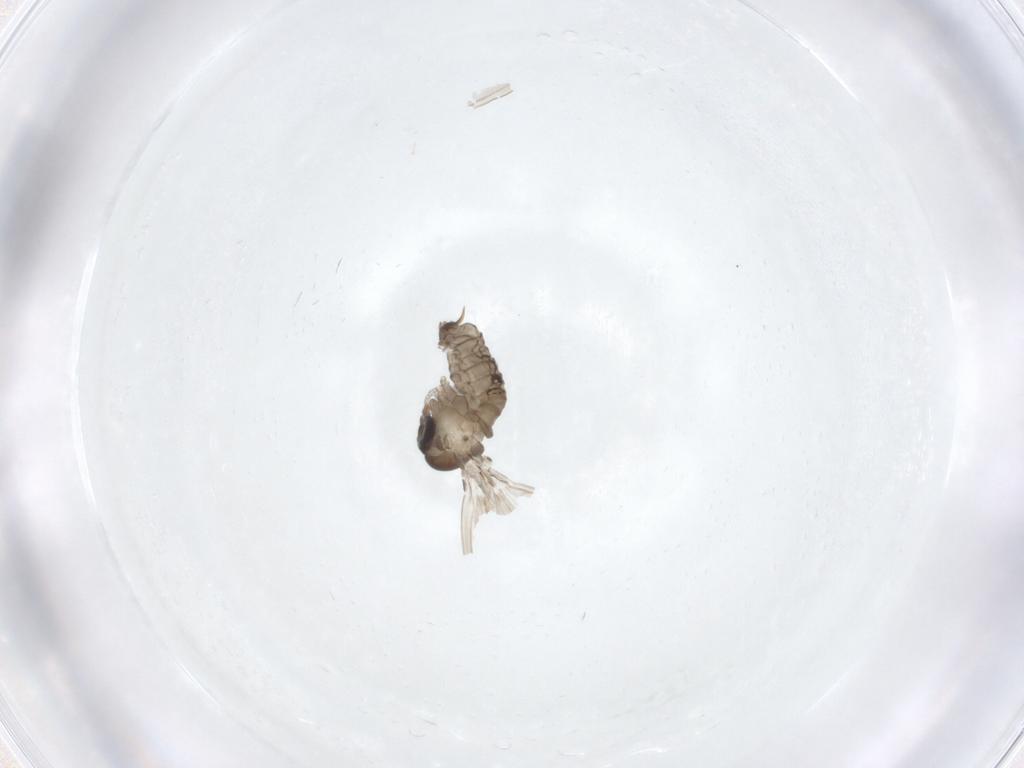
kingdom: Animalia
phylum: Arthropoda
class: Insecta
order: Diptera
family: Psychodidae
